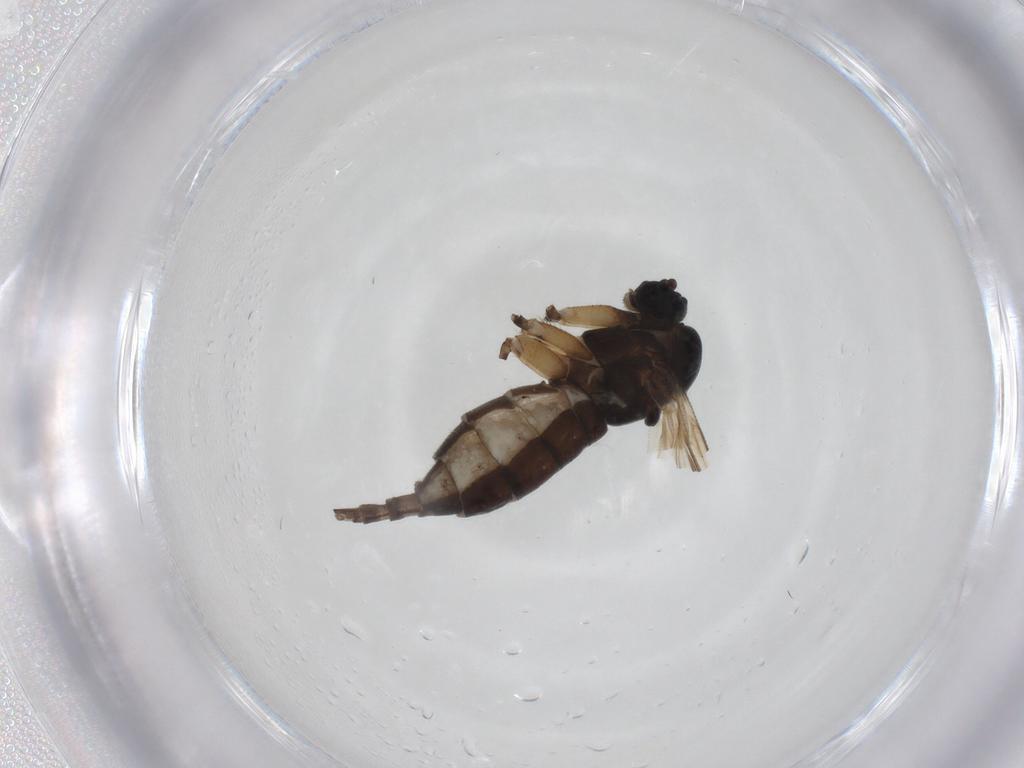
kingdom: Animalia
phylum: Arthropoda
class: Insecta
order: Diptera
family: Sciaridae
